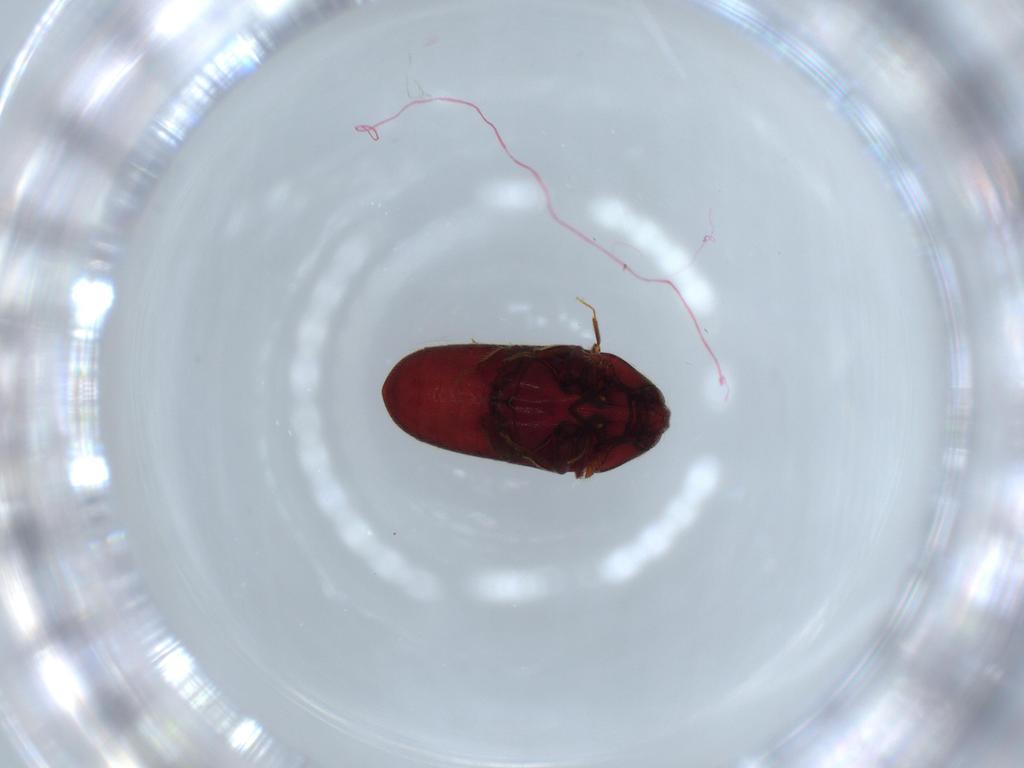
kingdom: Animalia
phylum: Arthropoda
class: Insecta
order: Coleoptera
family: Throscidae
